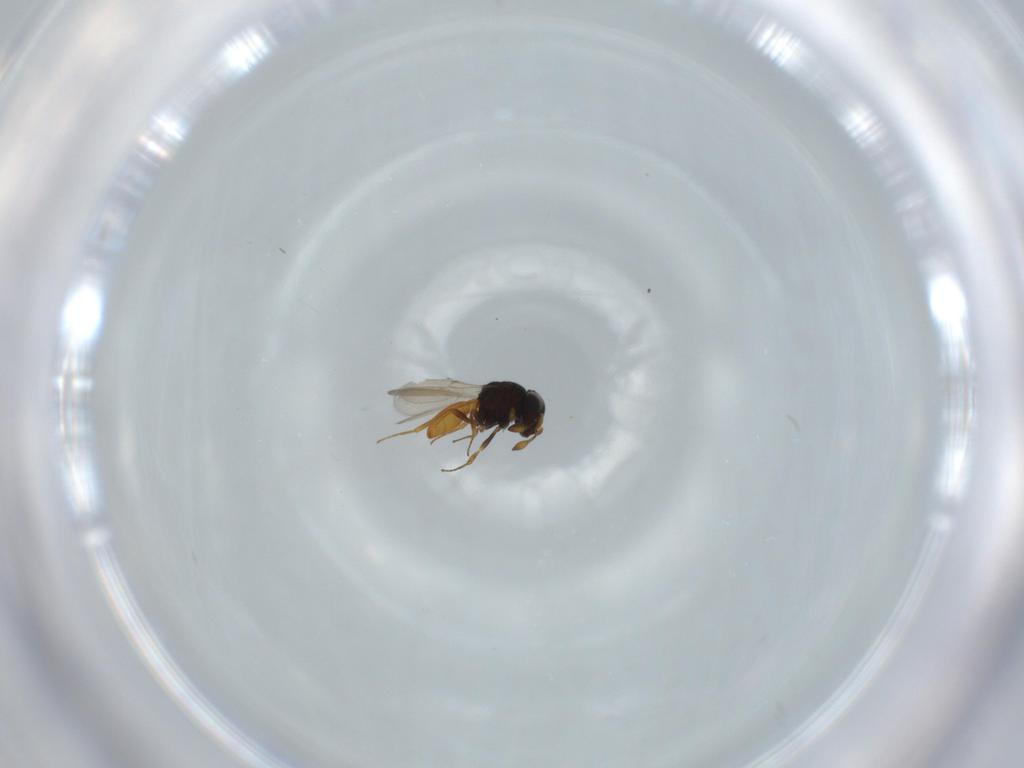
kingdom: Animalia
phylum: Arthropoda
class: Insecta
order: Hymenoptera
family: Scelionidae
